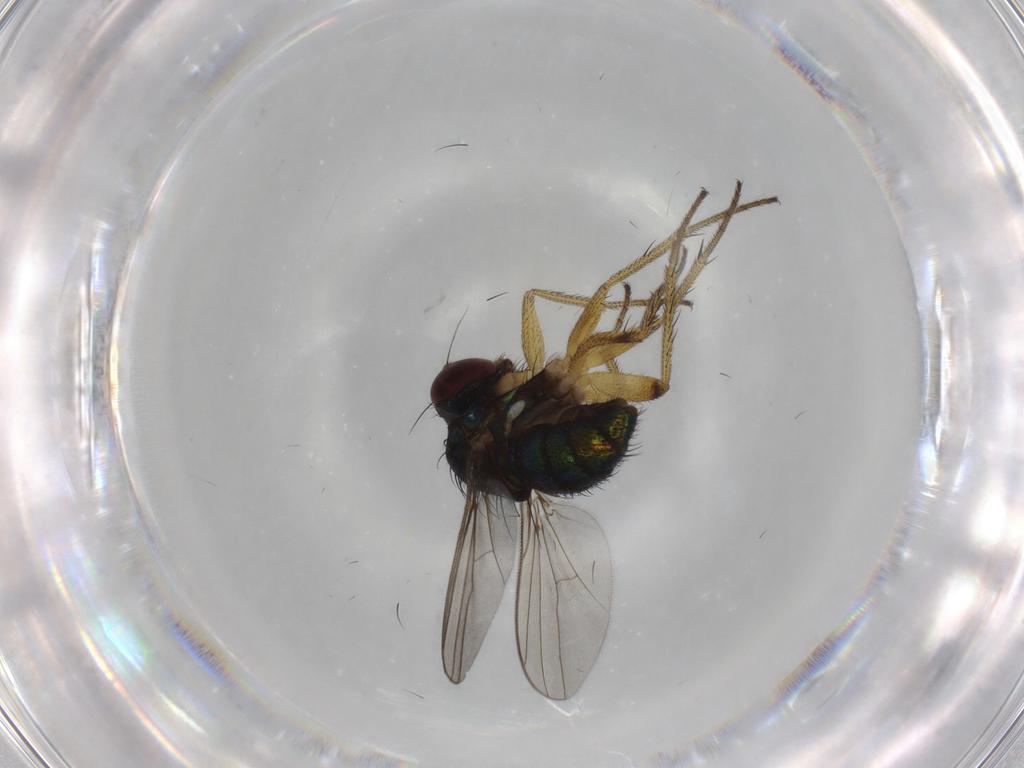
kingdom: Animalia
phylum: Arthropoda
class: Insecta
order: Diptera
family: Dolichopodidae
